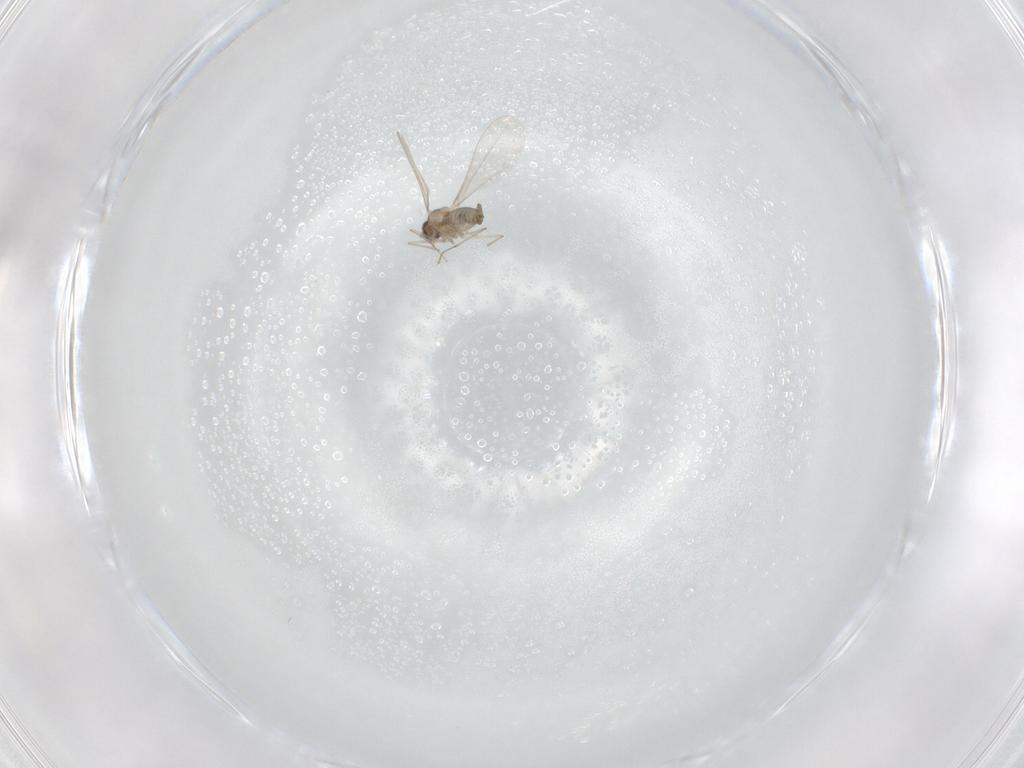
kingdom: Animalia
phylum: Arthropoda
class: Insecta
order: Diptera
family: Cecidomyiidae
